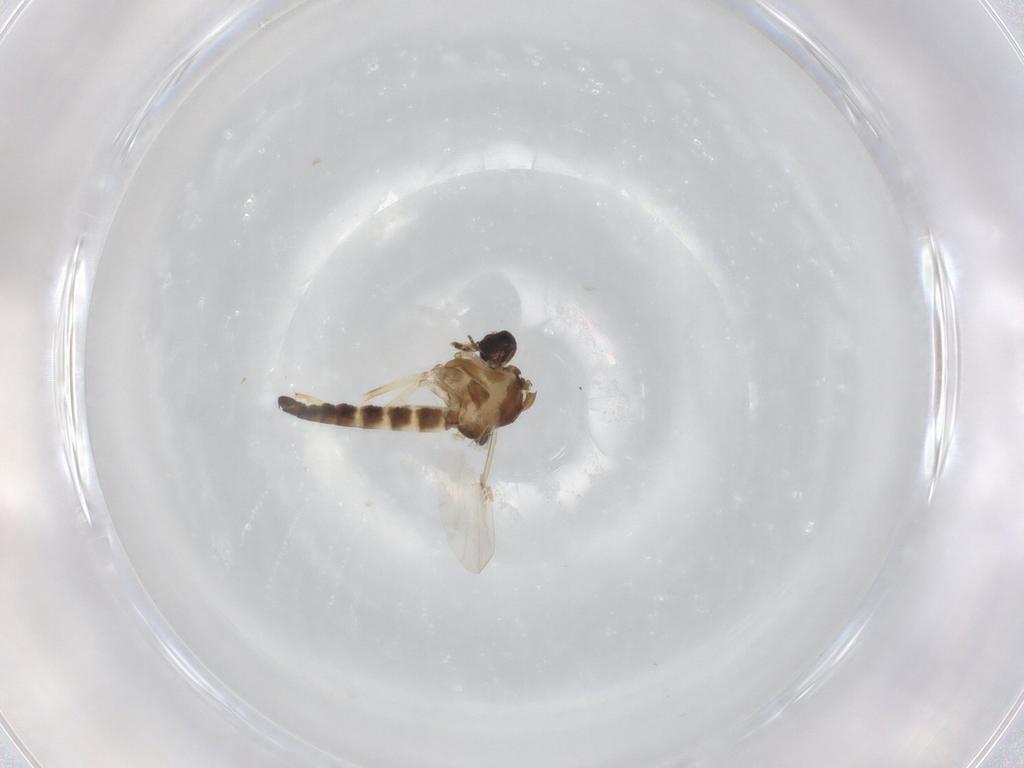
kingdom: Animalia
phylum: Arthropoda
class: Insecta
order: Diptera
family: Ceratopogonidae
